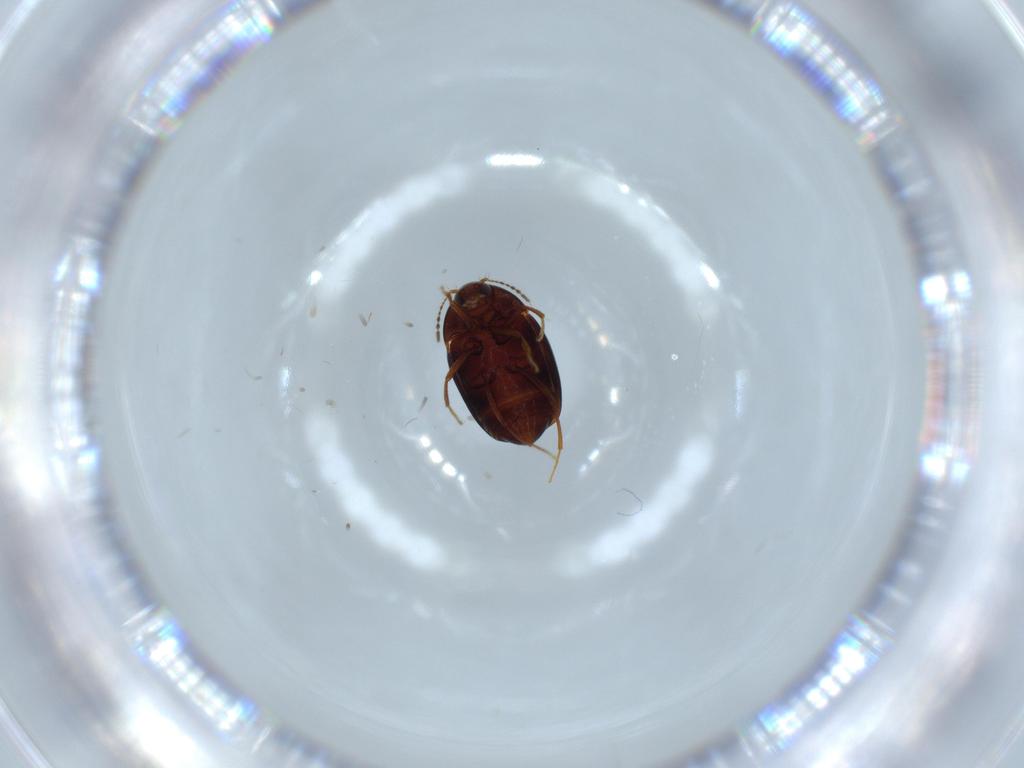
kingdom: Animalia
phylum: Arthropoda
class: Insecta
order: Coleoptera
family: Staphylinidae
